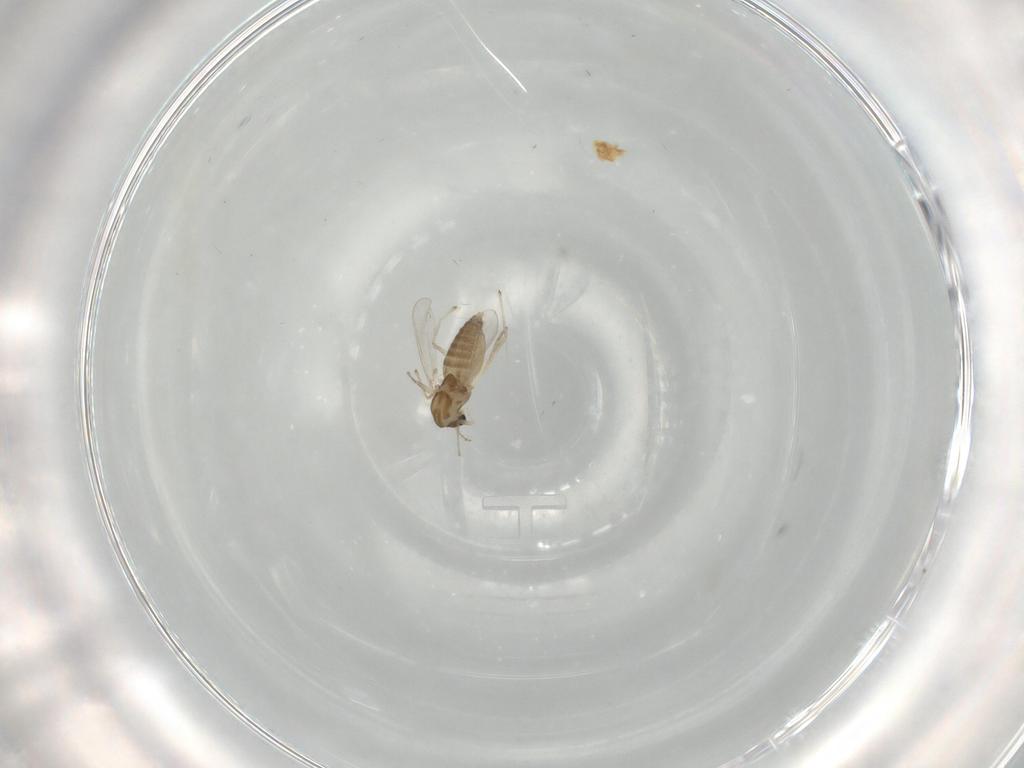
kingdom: Animalia
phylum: Arthropoda
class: Insecta
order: Diptera
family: Chironomidae
